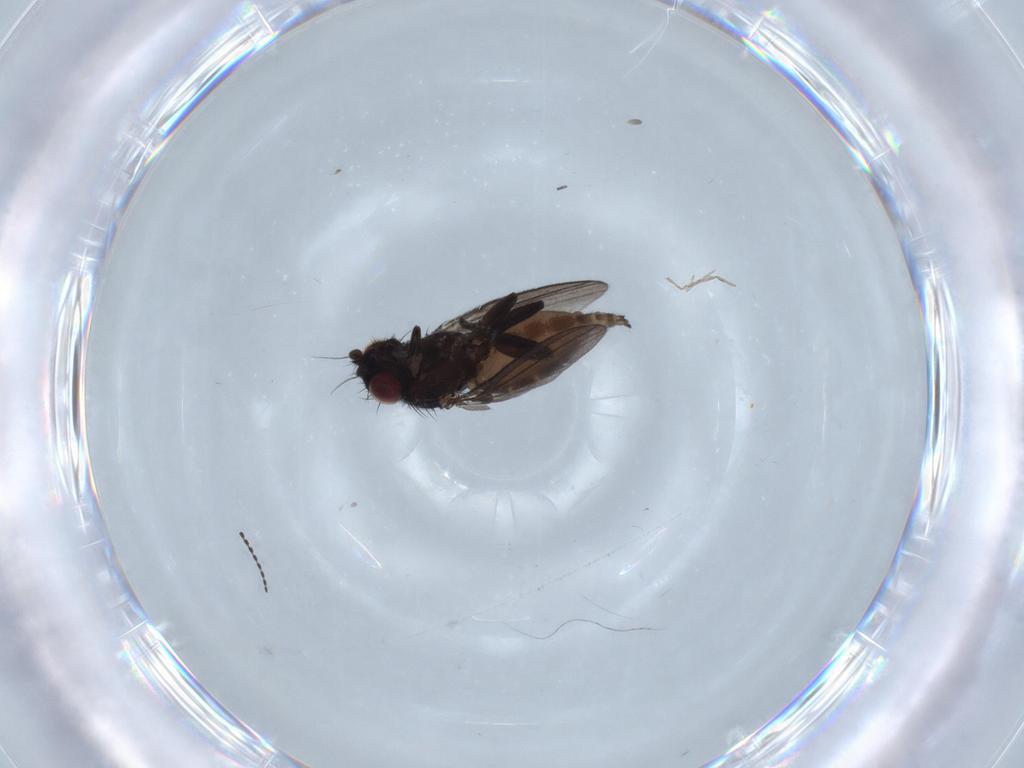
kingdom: Animalia
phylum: Arthropoda
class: Insecta
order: Diptera
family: Milichiidae
